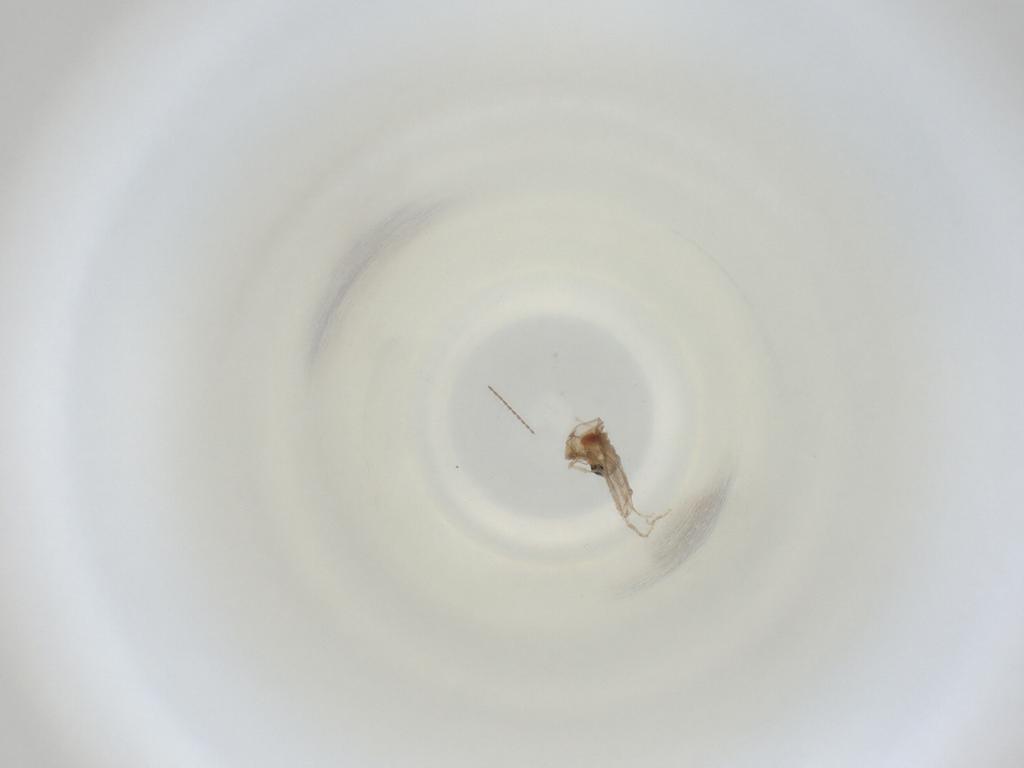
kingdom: Animalia
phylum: Arthropoda
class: Insecta
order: Diptera
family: Cecidomyiidae
